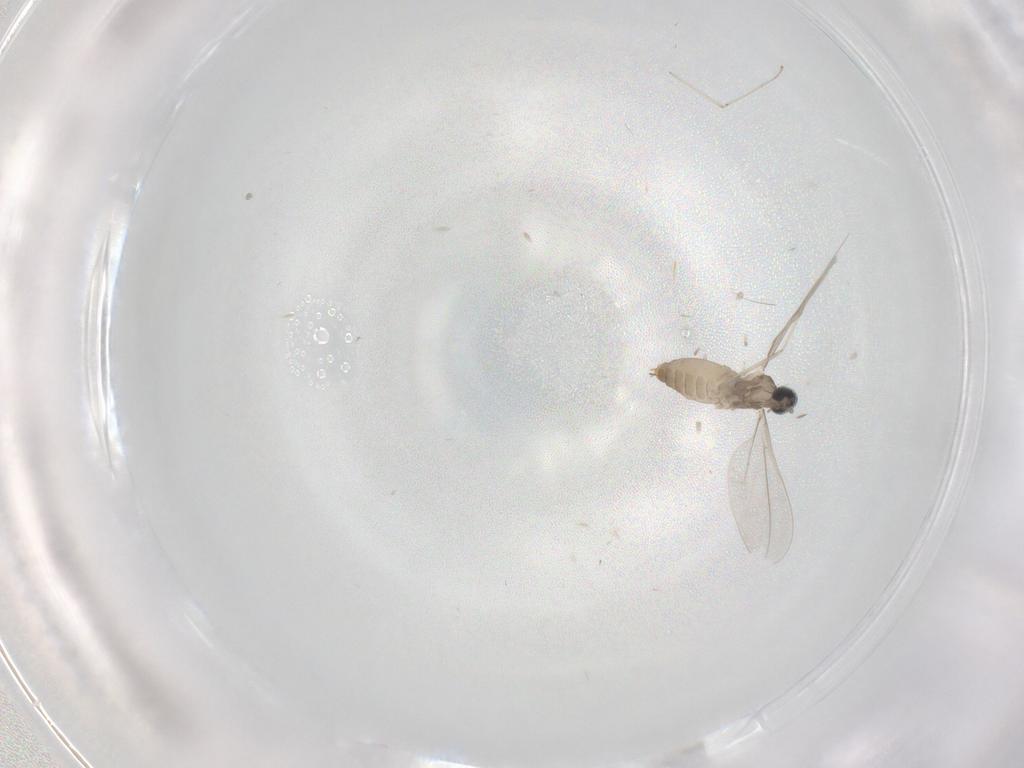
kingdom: Animalia
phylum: Arthropoda
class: Insecta
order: Diptera
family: Cecidomyiidae
